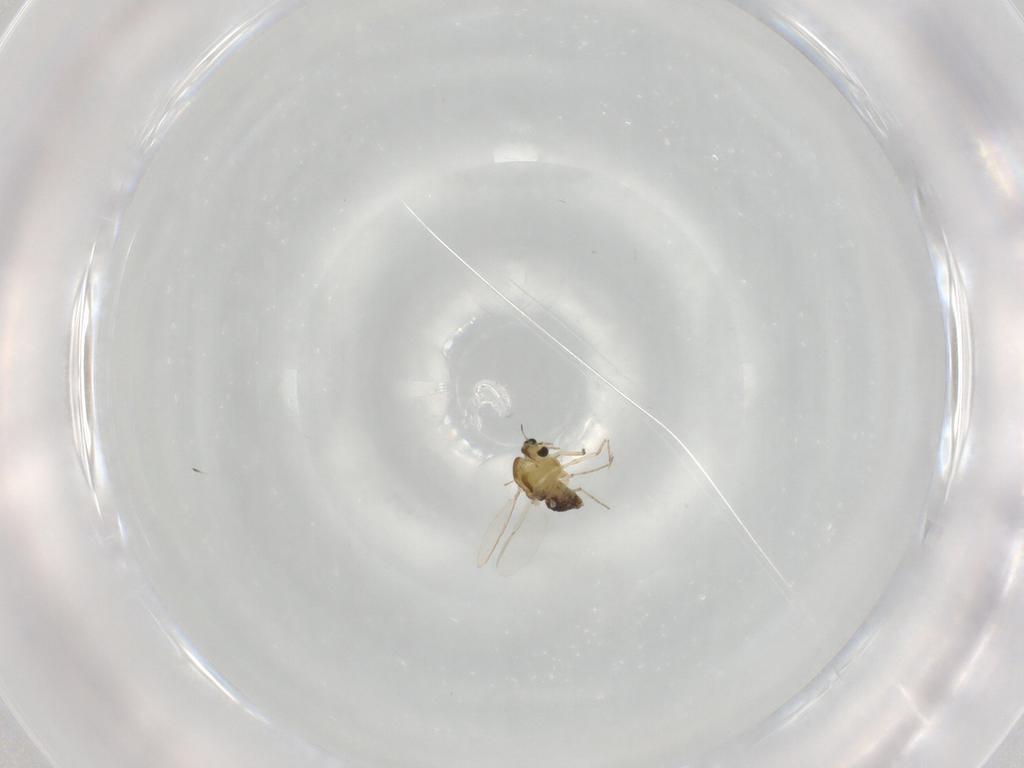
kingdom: Animalia
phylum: Arthropoda
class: Insecta
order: Diptera
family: Chironomidae
